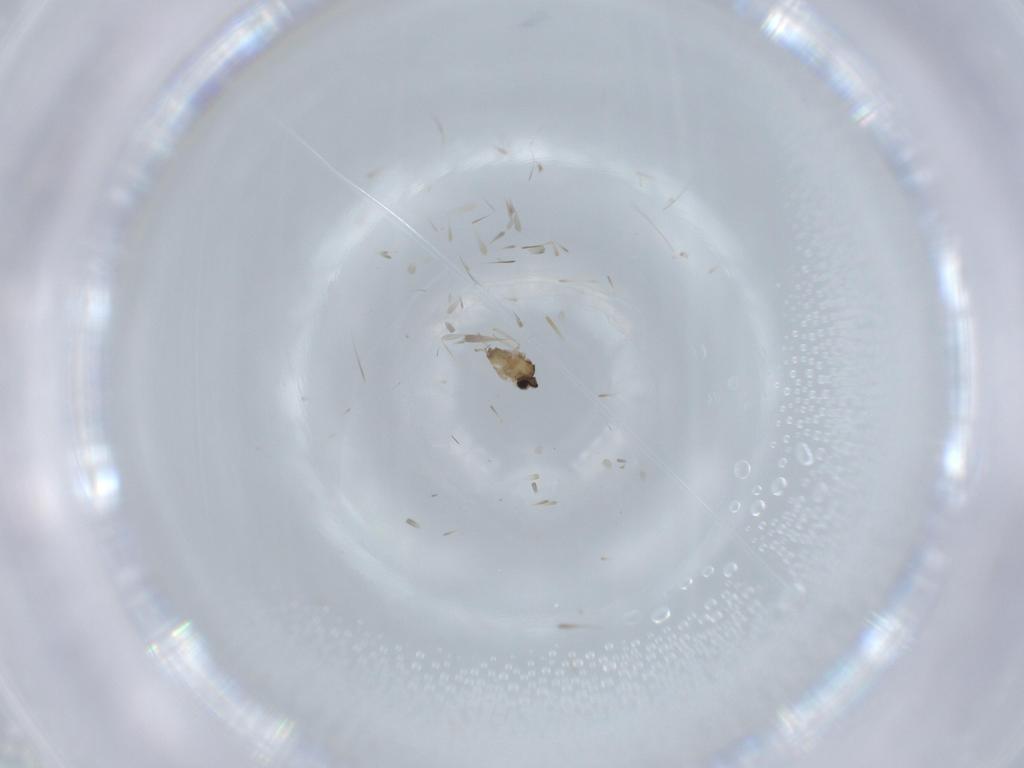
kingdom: Animalia
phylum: Arthropoda
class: Insecta
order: Diptera
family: Cecidomyiidae
